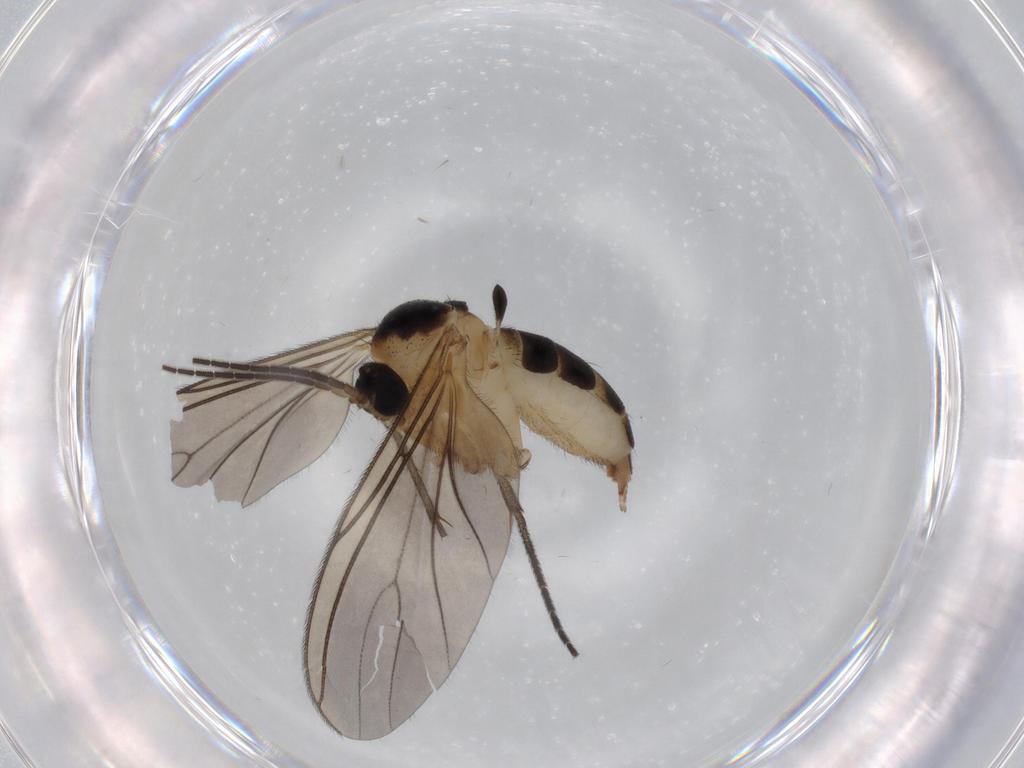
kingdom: Animalia
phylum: Arthropoda
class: Insecta
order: Diptera
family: Sciaridae
